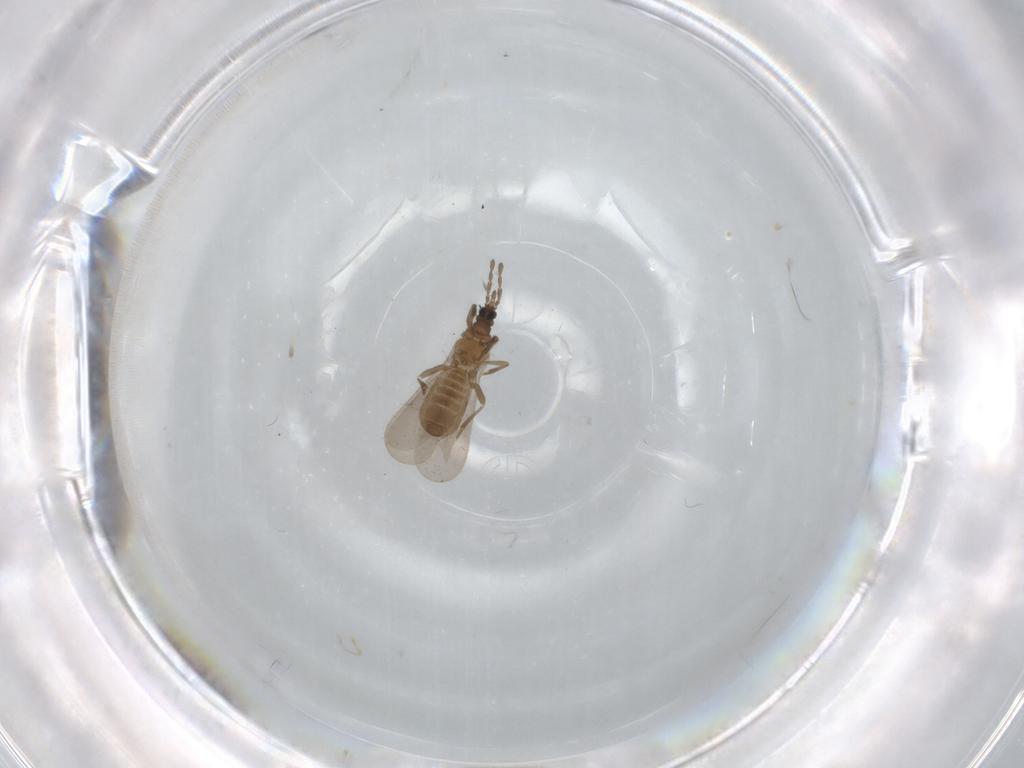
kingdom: Animalia
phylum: Arthropoda
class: Insecta
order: Hemiptera
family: Enicocephalidae
